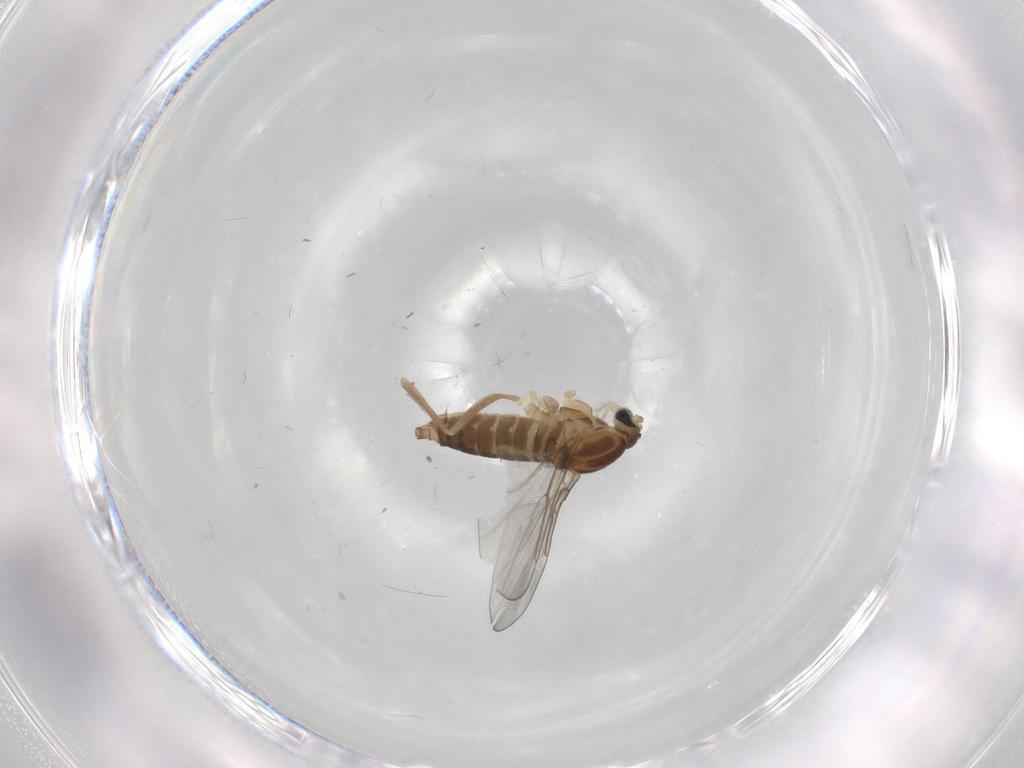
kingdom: Animalia
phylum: Arthropoda
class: Insecta
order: Diptera
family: Cecidomyiidae
